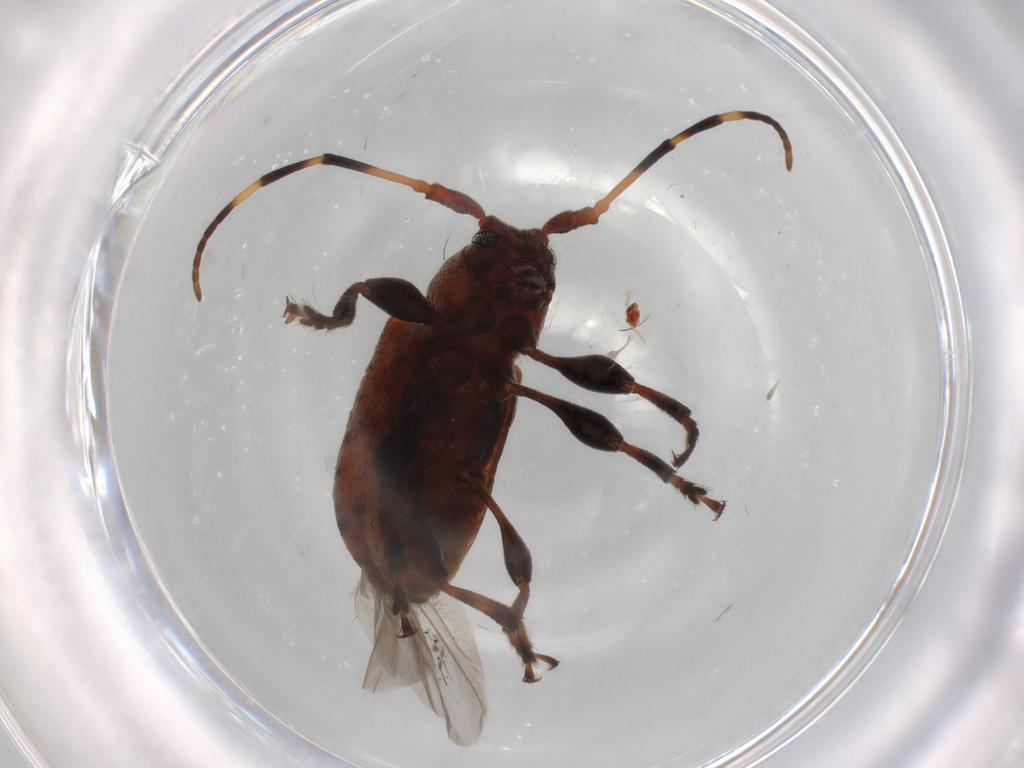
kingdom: Animalia
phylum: Arthropoda
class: Insecta
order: Coleoptera
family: Cerambycidae
